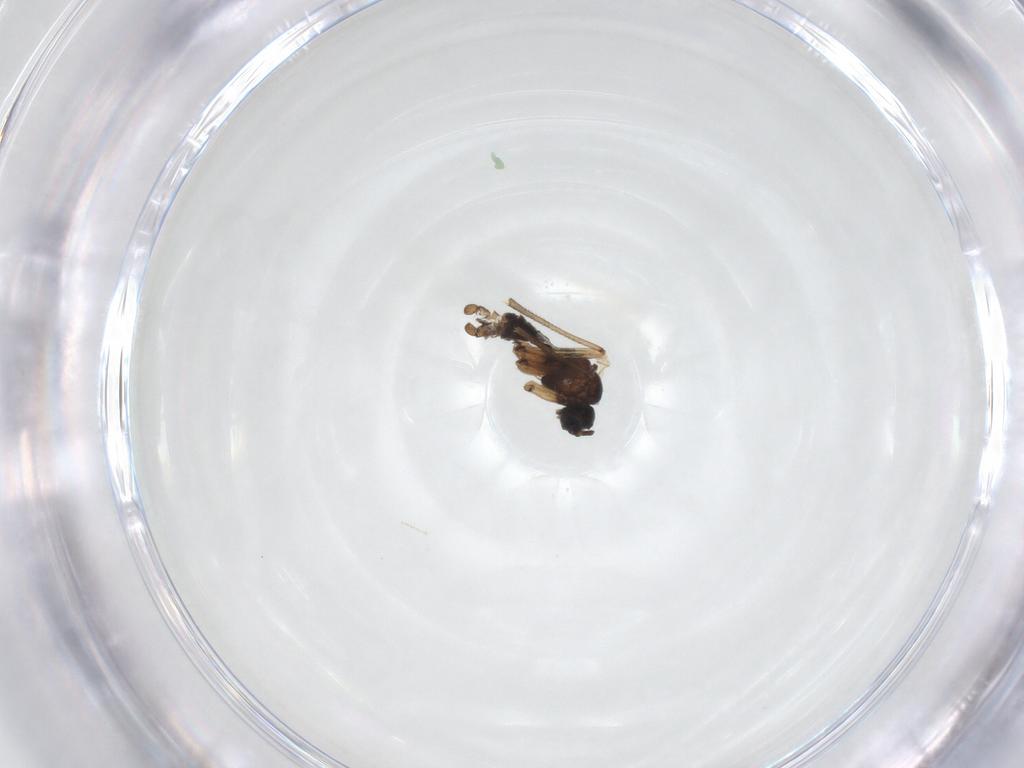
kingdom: Animalia
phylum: Arthropoda
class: Insecta
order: Diptera
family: Sciaridae
